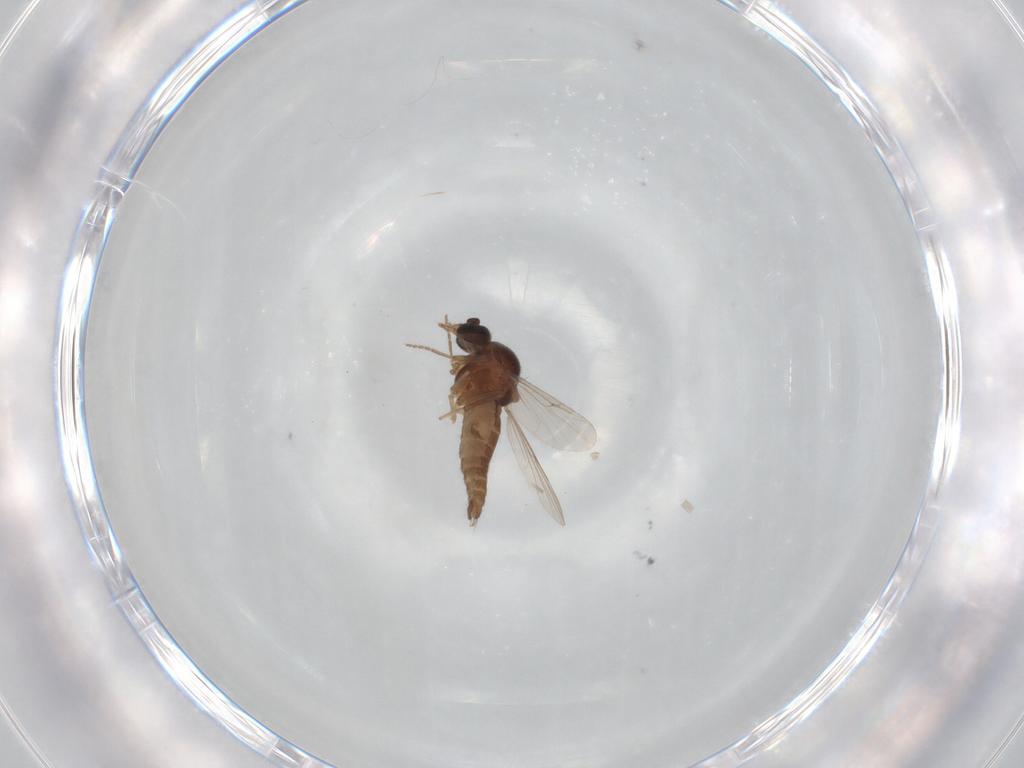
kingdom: Animalia
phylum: Arthropoda
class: Insecta
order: Diptera
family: Ceratopogonidae
